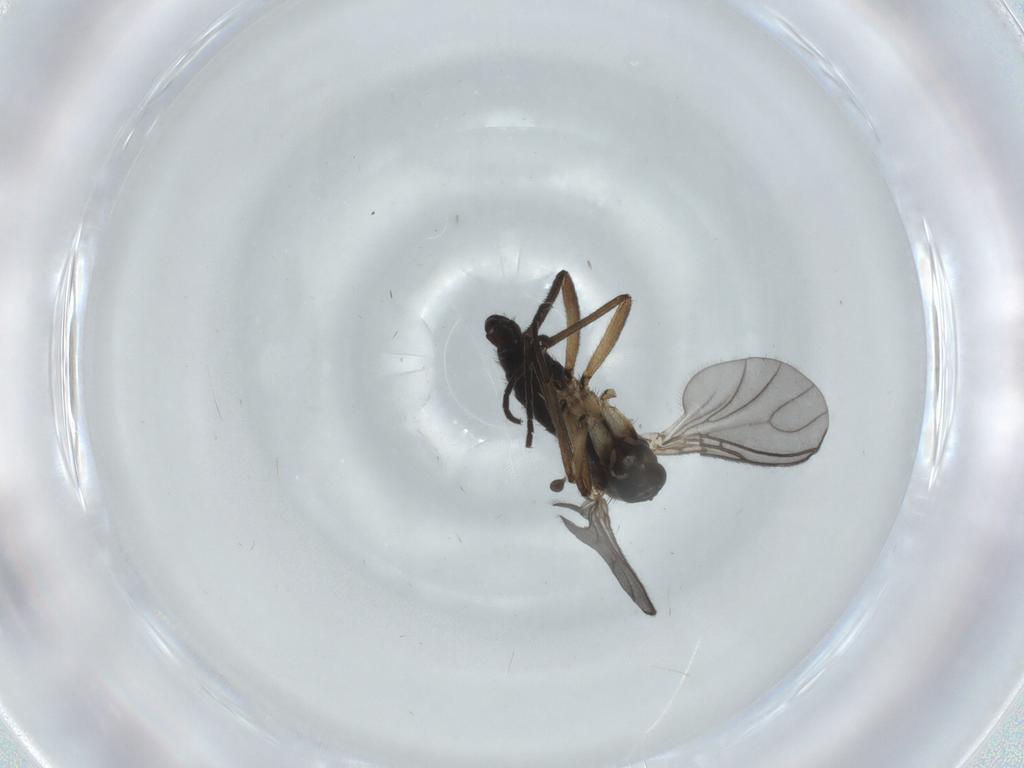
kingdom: Animalia
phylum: Arthropoda
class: Insecta
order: Diptera
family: Sciaridae
